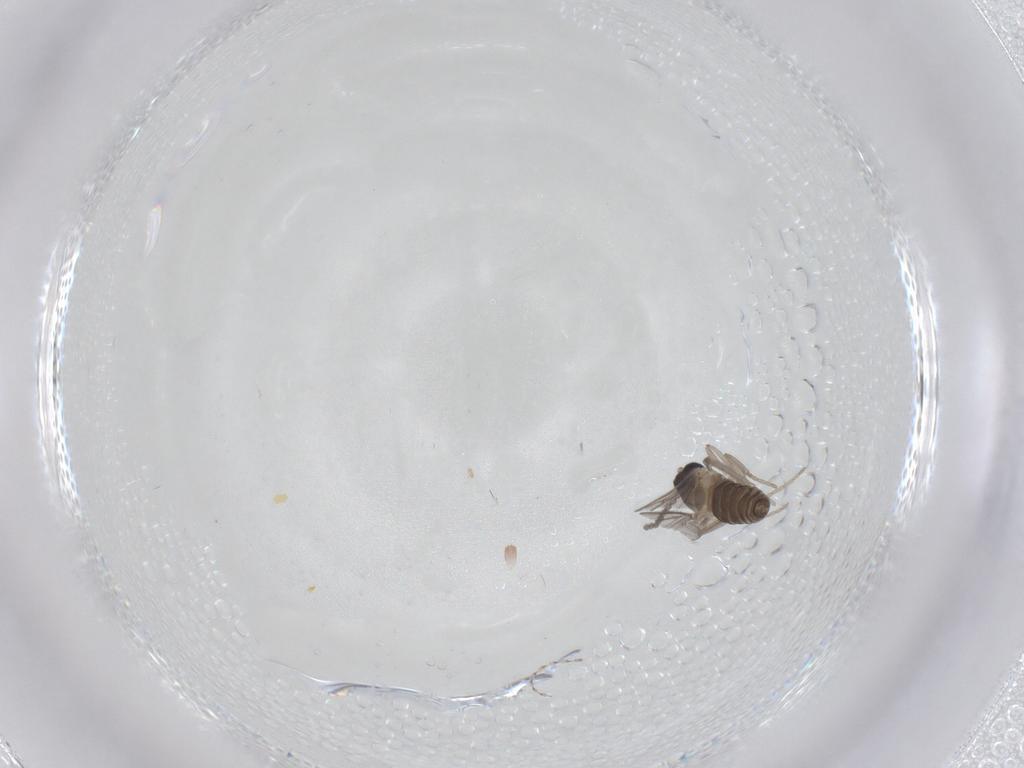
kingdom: Animalia
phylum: Arthropoda
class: Insecta
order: Diptera
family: Cecidomyiidae
